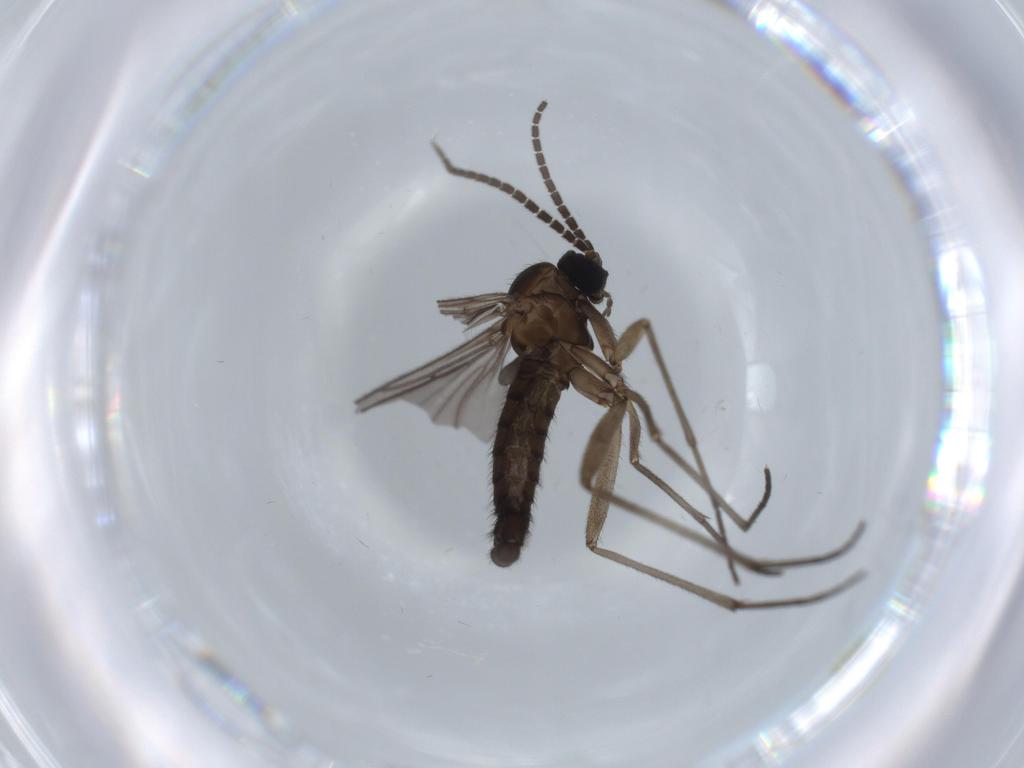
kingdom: Animalia
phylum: Arthropoda
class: Insecta
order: Diptera
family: Sciaridae
